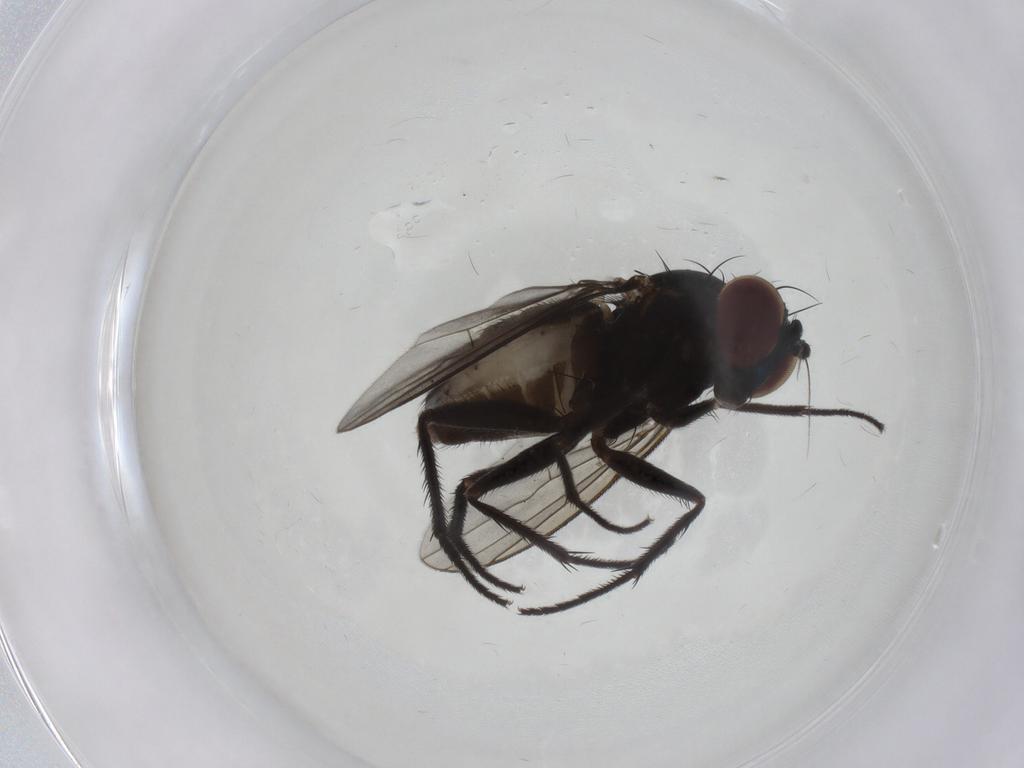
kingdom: Animalia
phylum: Arthropoda
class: Insecta
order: Diptera
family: Dolichopodidae
